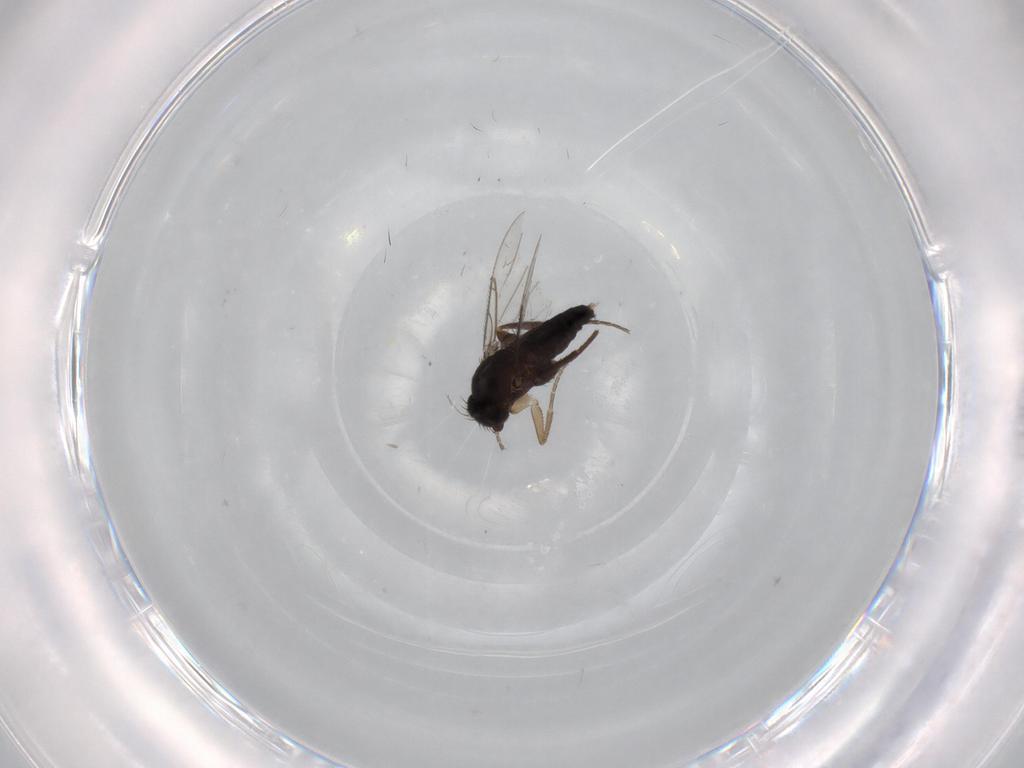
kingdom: Animalia
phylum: Arthropoda
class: Insecta
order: Diptera
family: Phoridae
